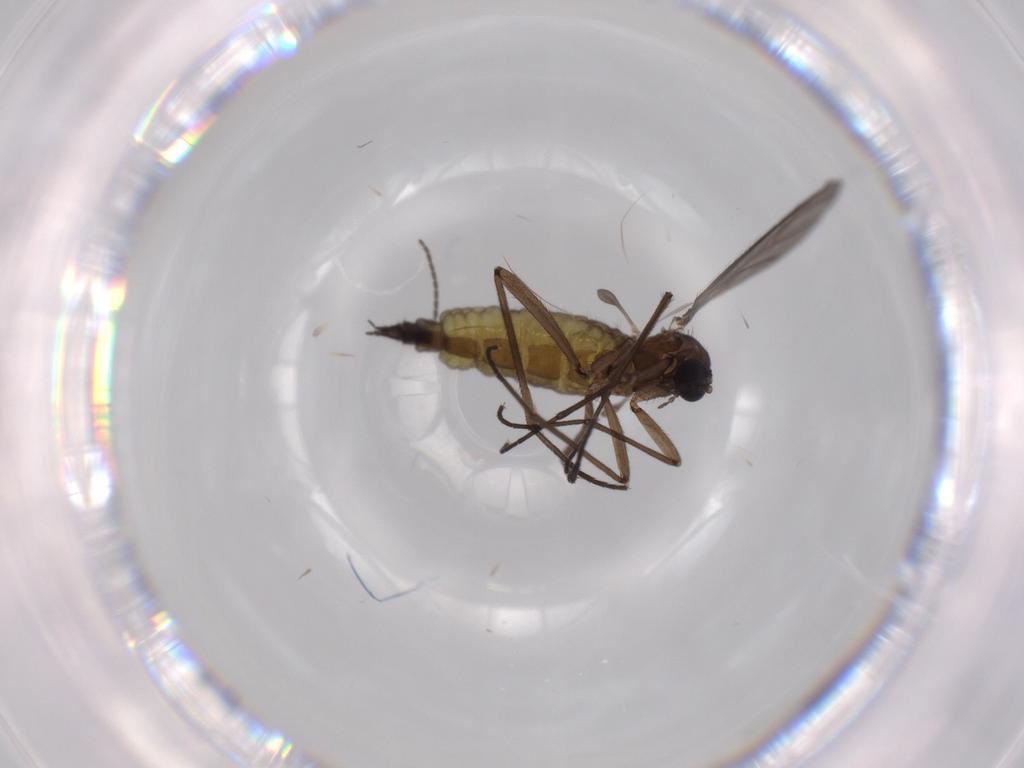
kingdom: Animalia
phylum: Arthropoda
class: Insecta
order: Diptera
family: Sciaridae
